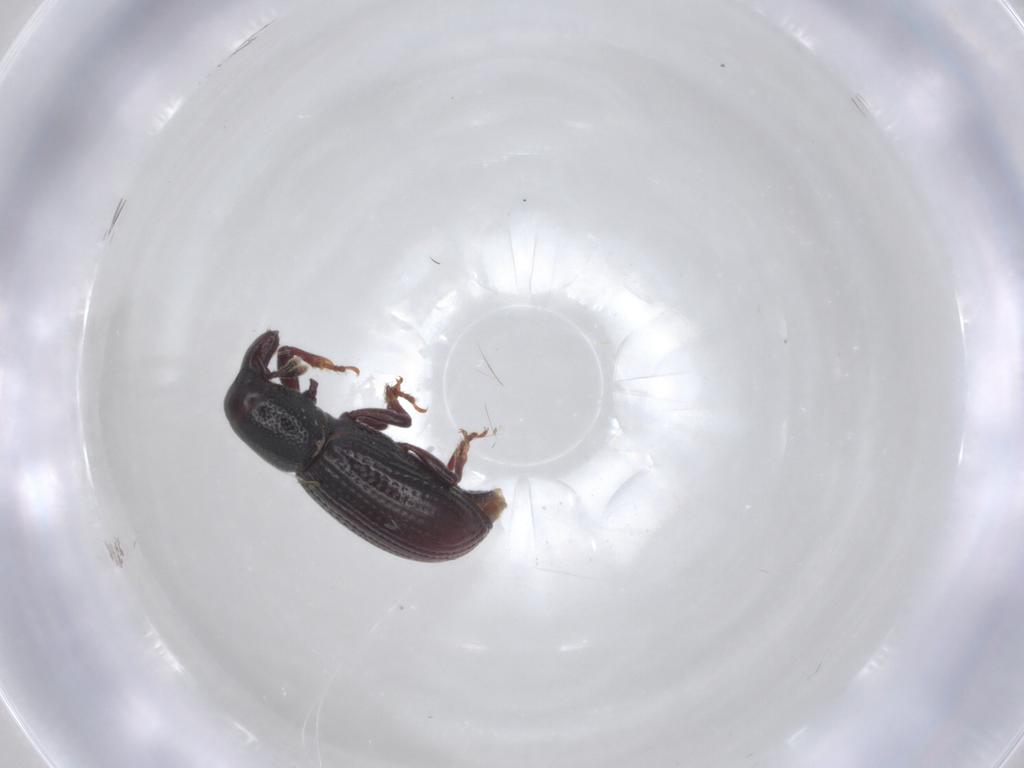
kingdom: Animalia
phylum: Arthropoda
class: Insecta
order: Coleoptera
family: Curculionidae
